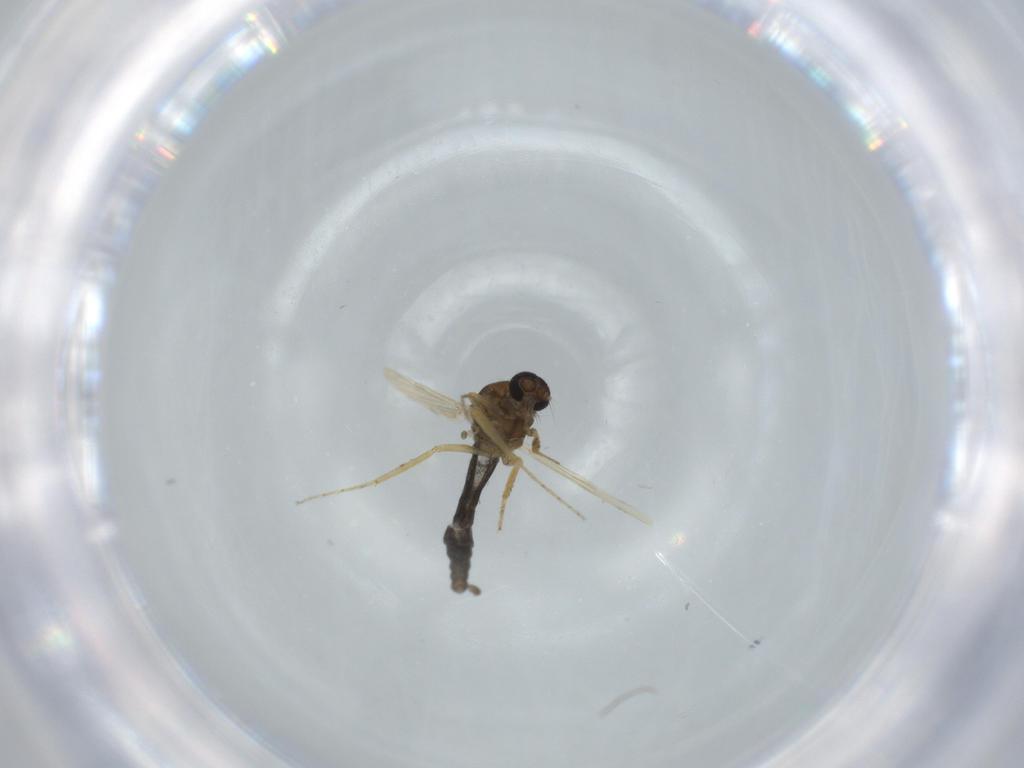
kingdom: Animalia
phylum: Arthropoda
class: Insecta
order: Diptera
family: Ceratopogonidae
